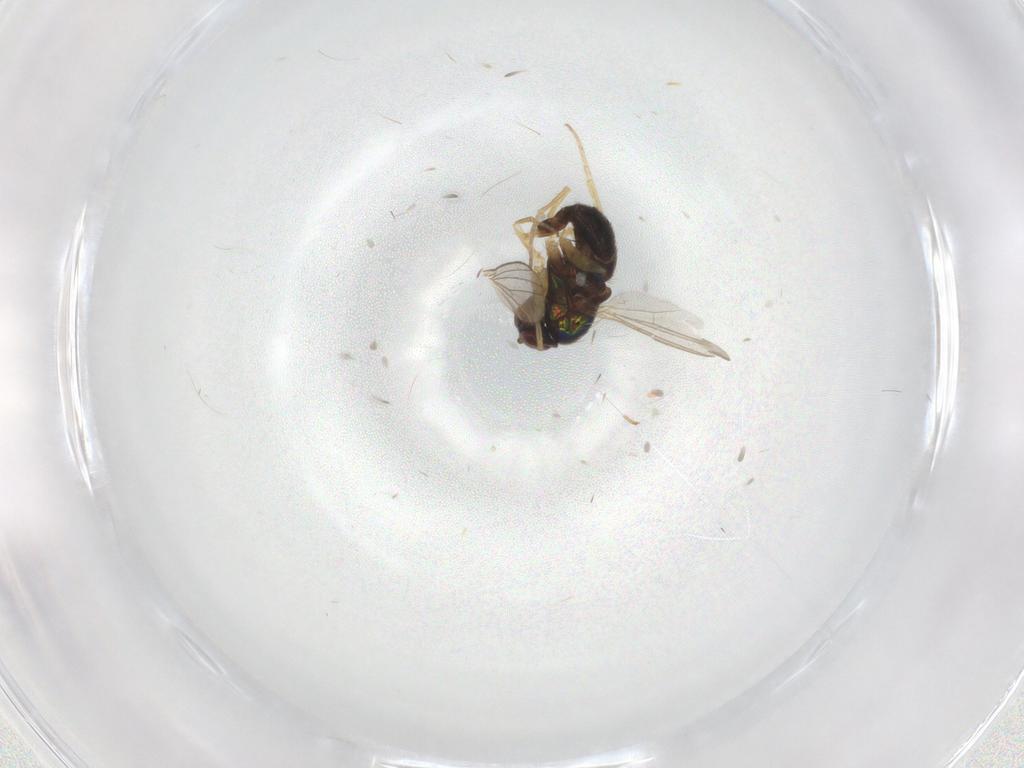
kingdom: Animalia
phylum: Arthropoda
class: Insecta
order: Diptera
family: Dolichopodidae
